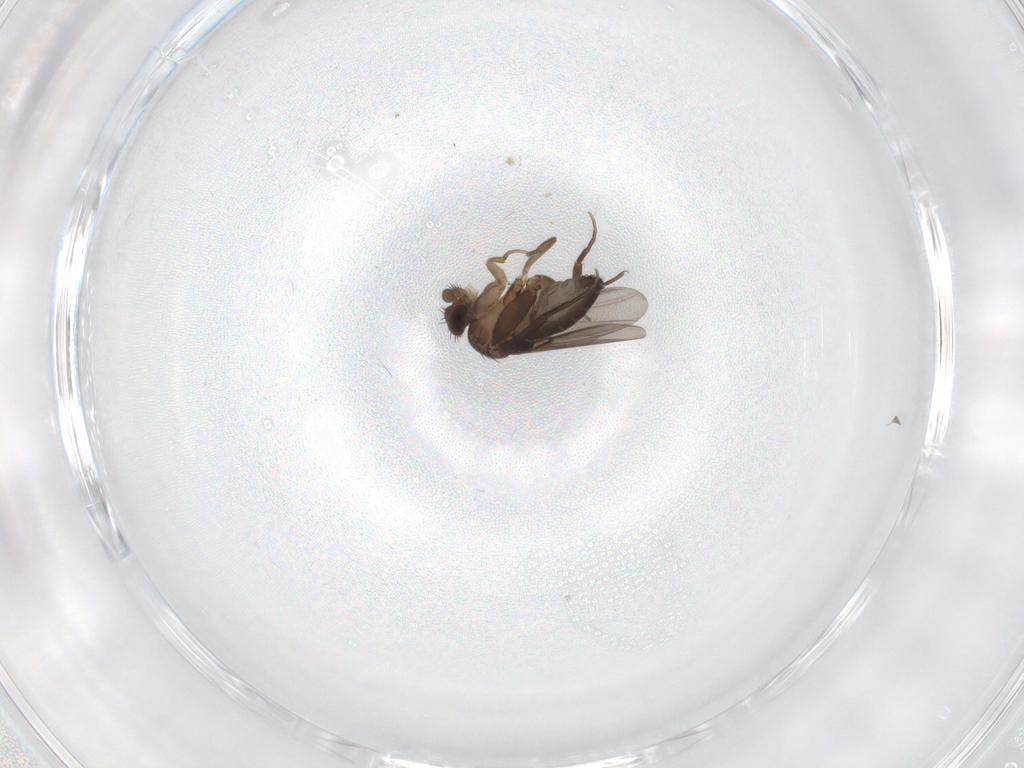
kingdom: Animalia
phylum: Arthropoda
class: Insecta
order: Diptera
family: Phoridae
